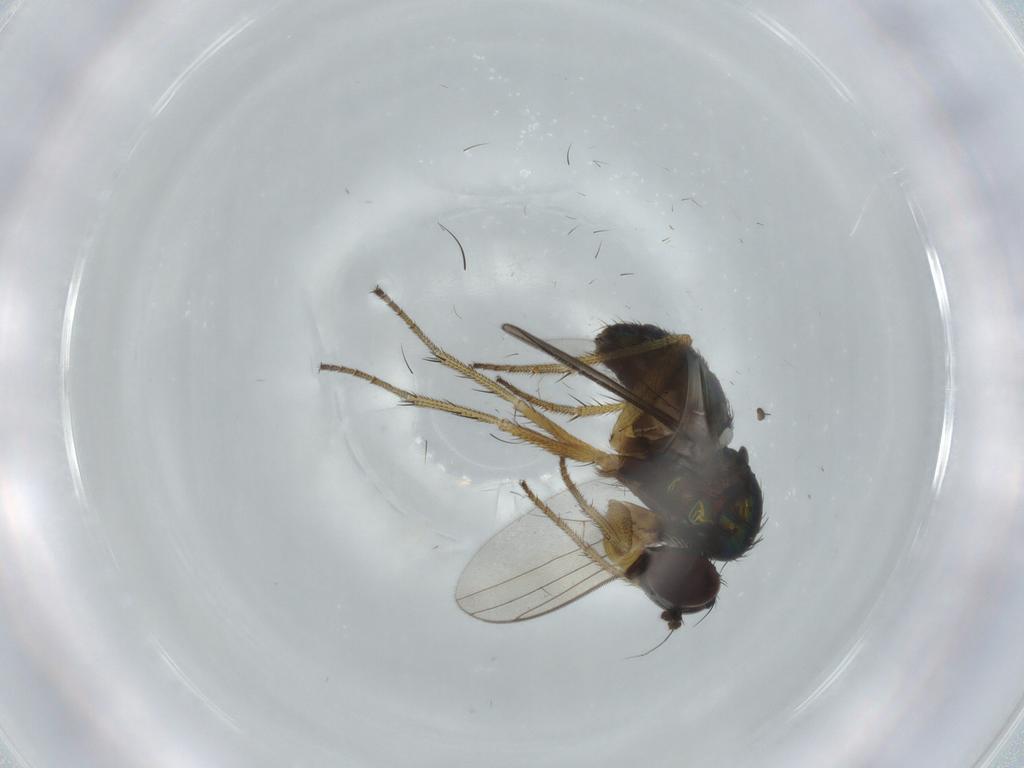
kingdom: Animalia
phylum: Arthropoda
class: Insecta
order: Diptera
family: Dolichopodidae
